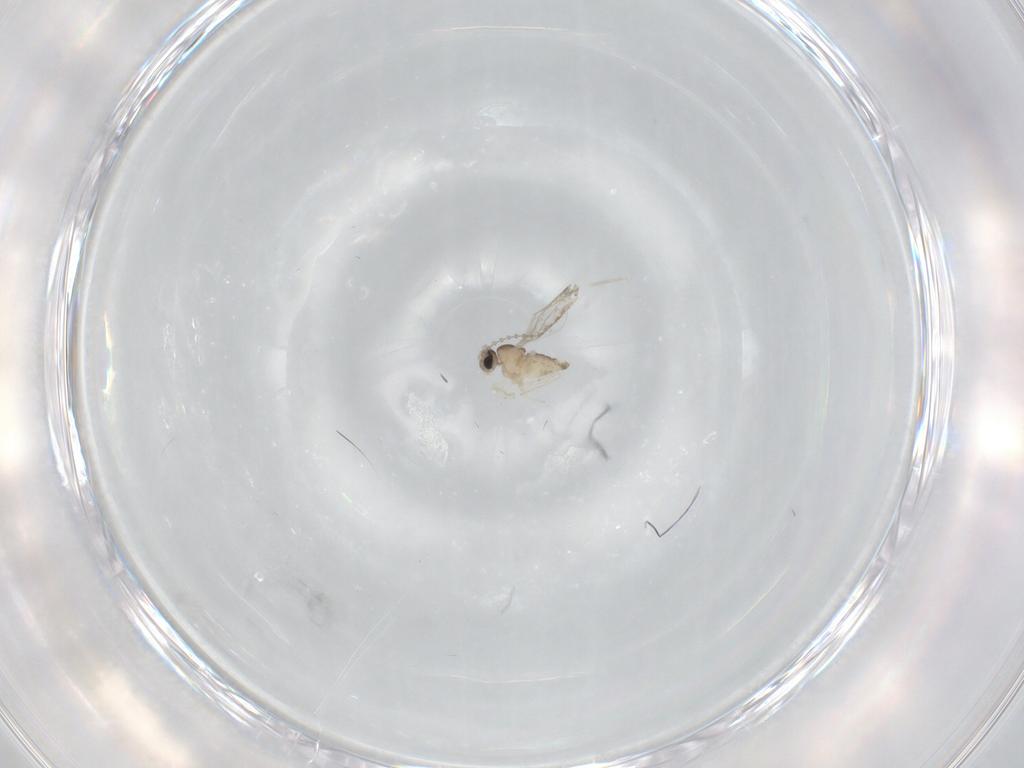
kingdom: Animalia
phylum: Arthropoda
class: Insecta
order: Diptera
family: Cecidomyiidae
